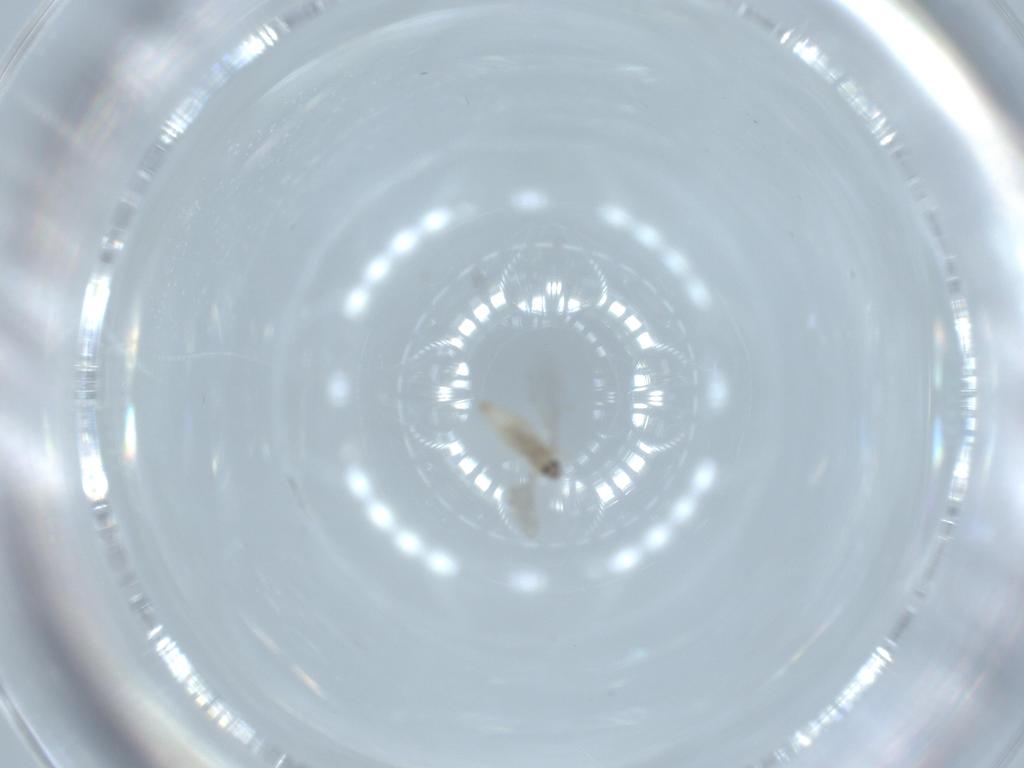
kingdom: Animalia
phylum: Arthropoda
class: Insecta
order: Diptera
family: Cecidomyiidae
